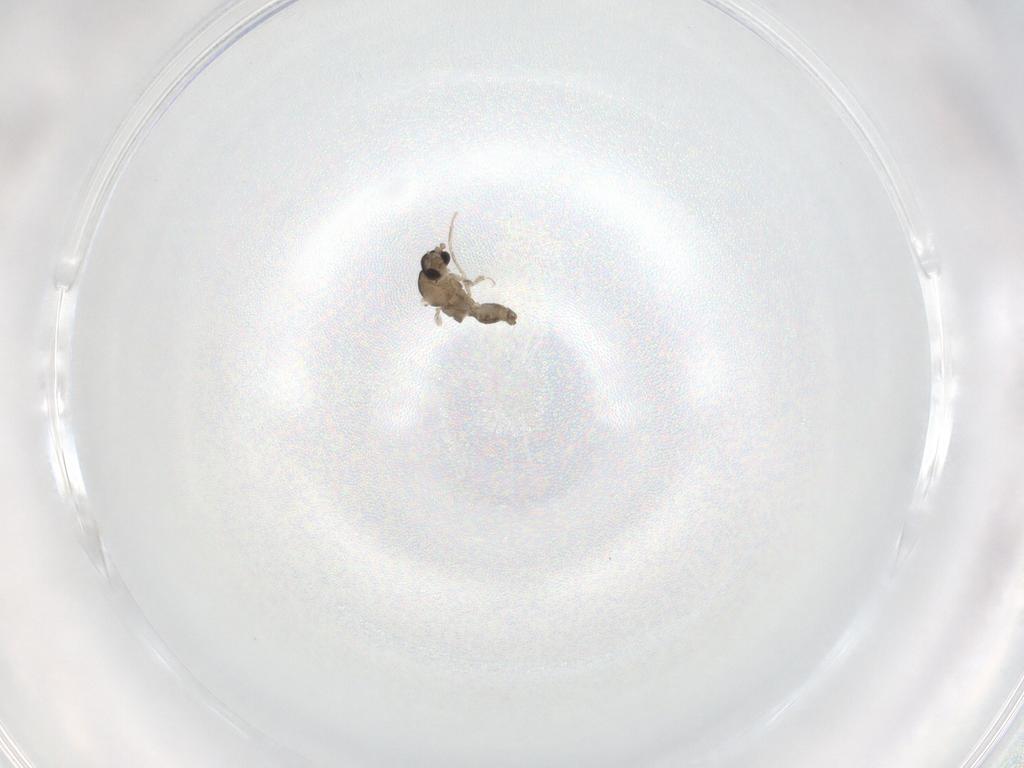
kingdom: Animalia
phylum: Arthropoda
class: Insecta
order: Diptera
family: Cecidomyiidae
